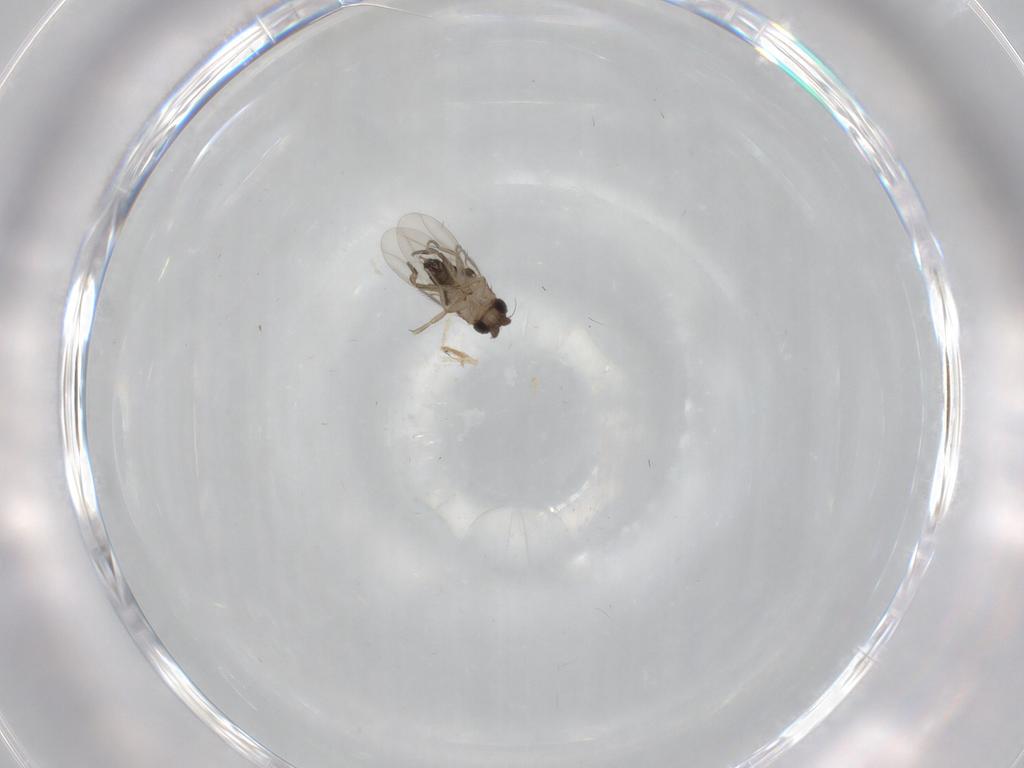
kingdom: Animalia
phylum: Arthropoda
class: Insecta
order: Diptera
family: Phoridae
